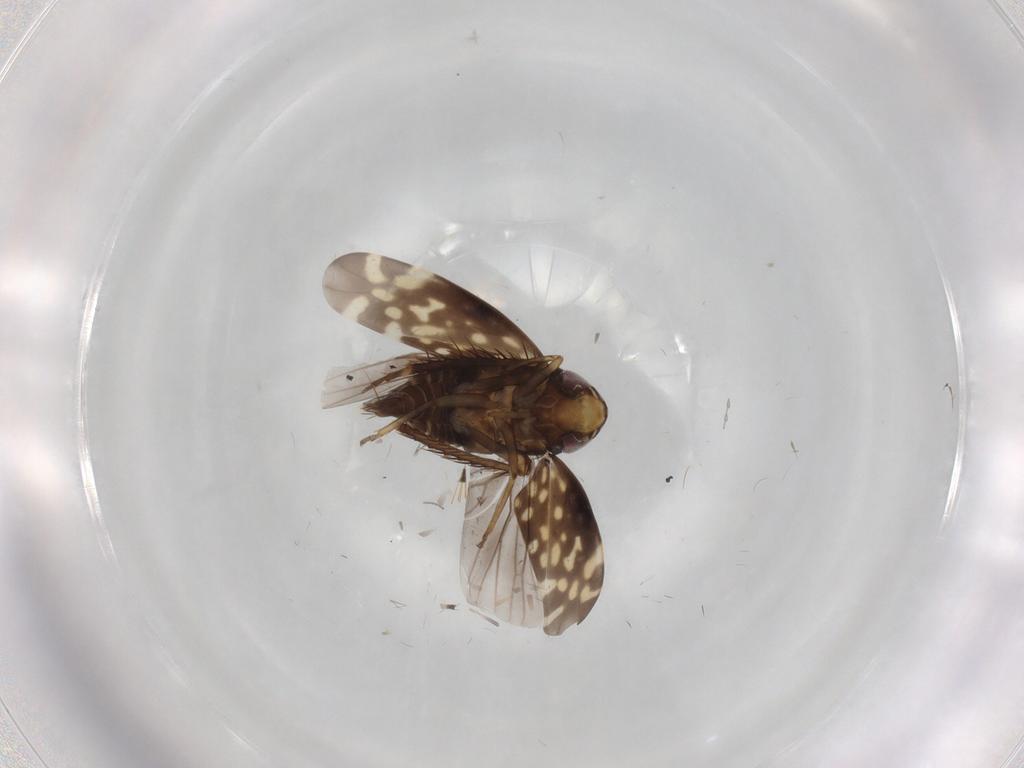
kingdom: Animalia
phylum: Arthropoda
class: Insecta
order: Hemiptera
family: Cicadellidae
